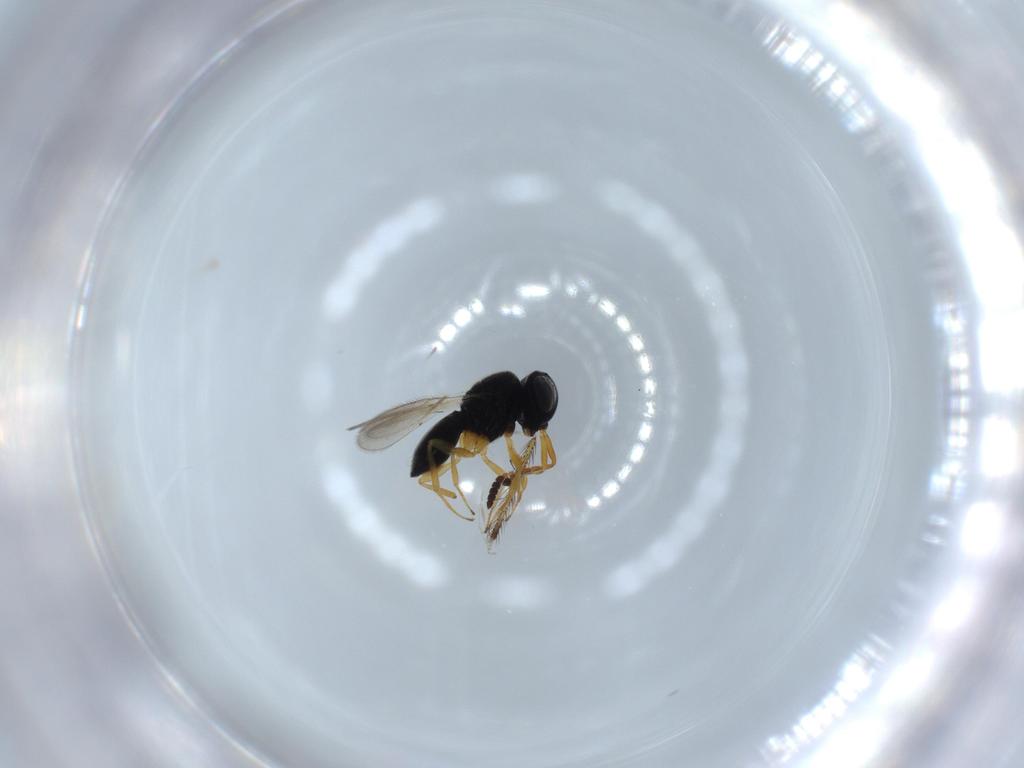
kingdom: Animalia
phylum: Arthropoda
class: Insecta
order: Hymenoptera
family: Scelionidae
